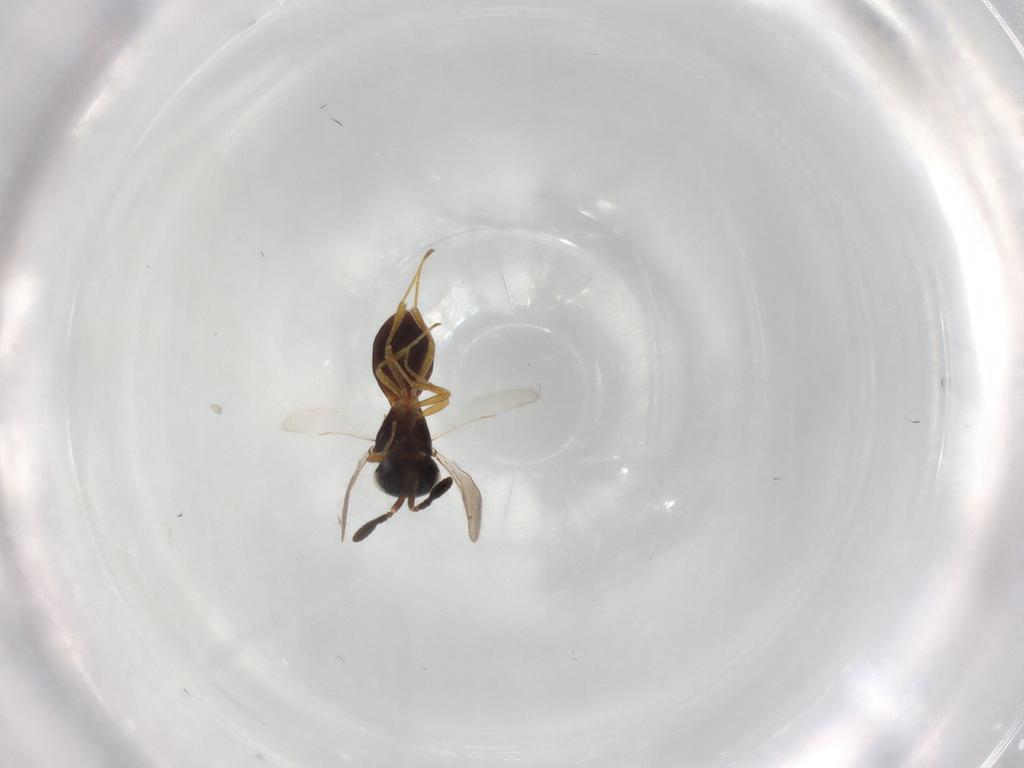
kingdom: Animalia
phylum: Arthropoda
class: Insecta
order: Hymenoptera
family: Scelionidae
